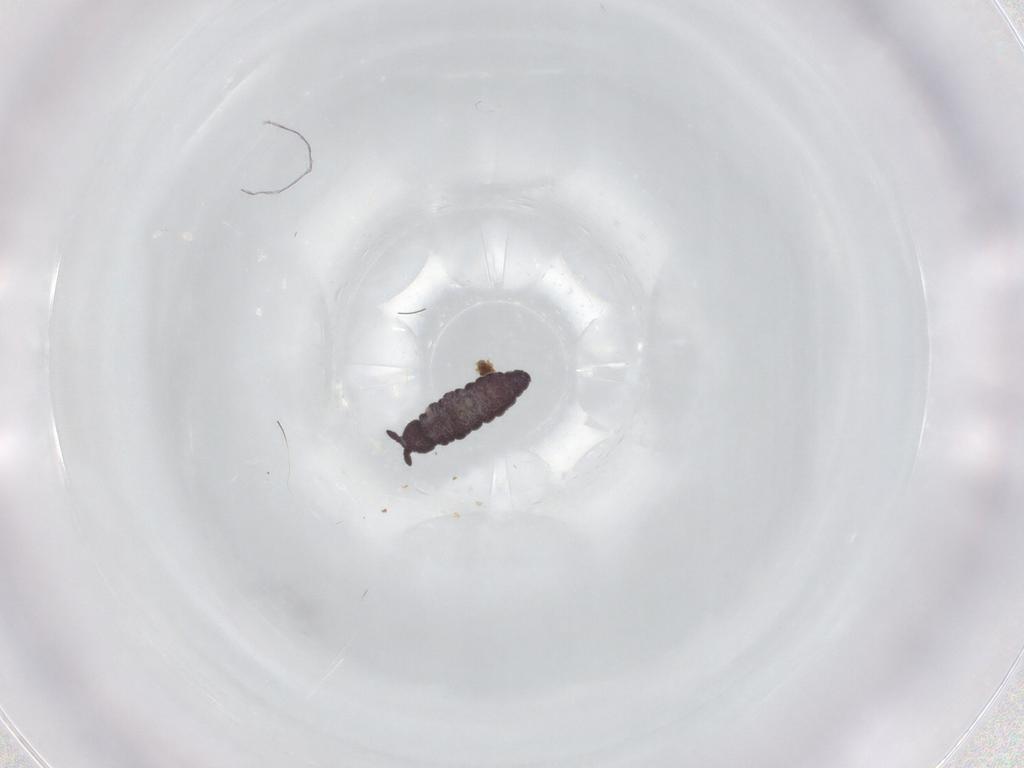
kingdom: Animalia
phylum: Arthropoda
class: Collembola
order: Poduromorpha
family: Hypogastruridae
